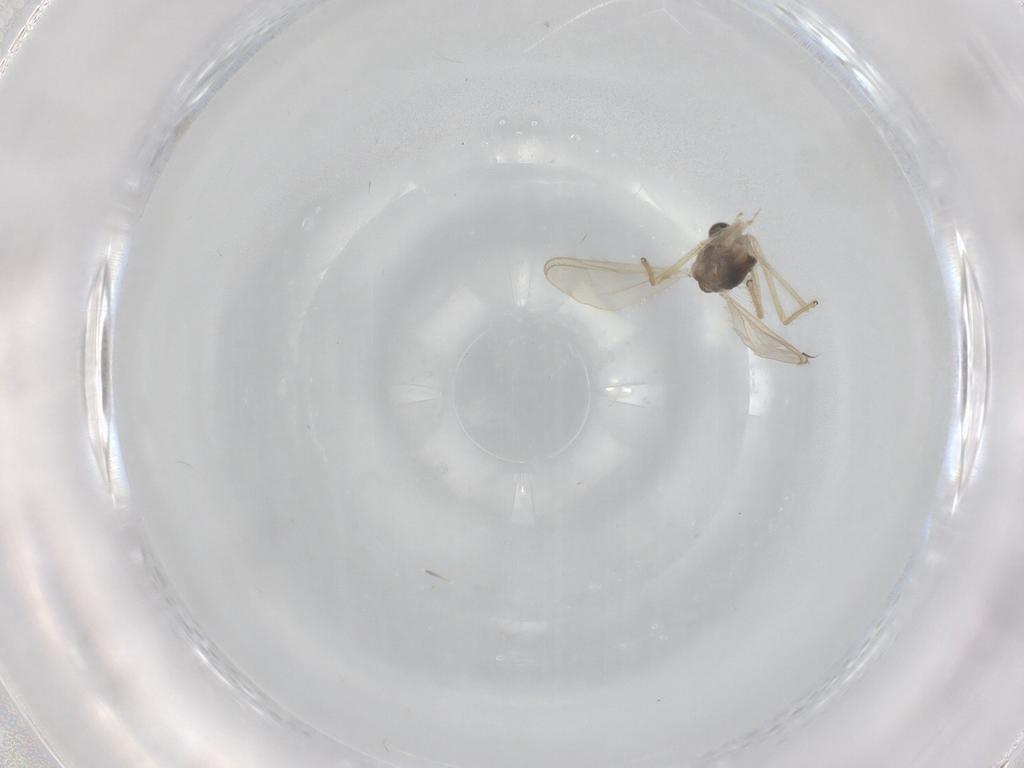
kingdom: Animalia
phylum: Arthropoda
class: Insecta
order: Diptera
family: Chironomidae
